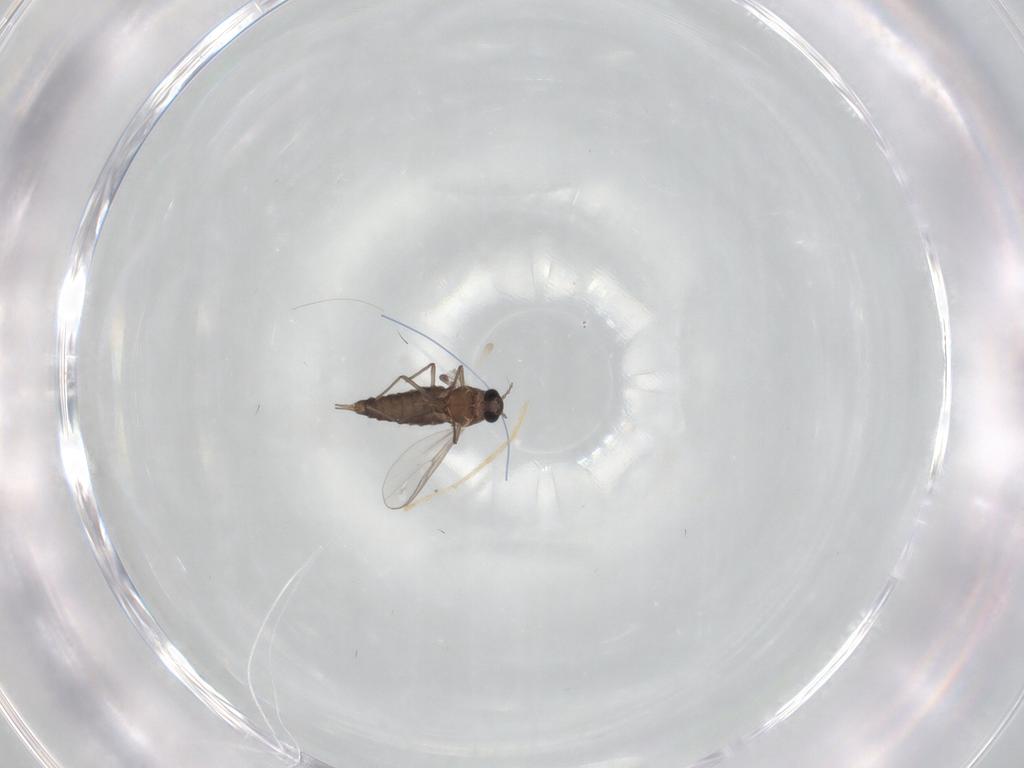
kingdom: Animalia
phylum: Arthropoda
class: Insecta
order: Diptera
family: Chironomidae
